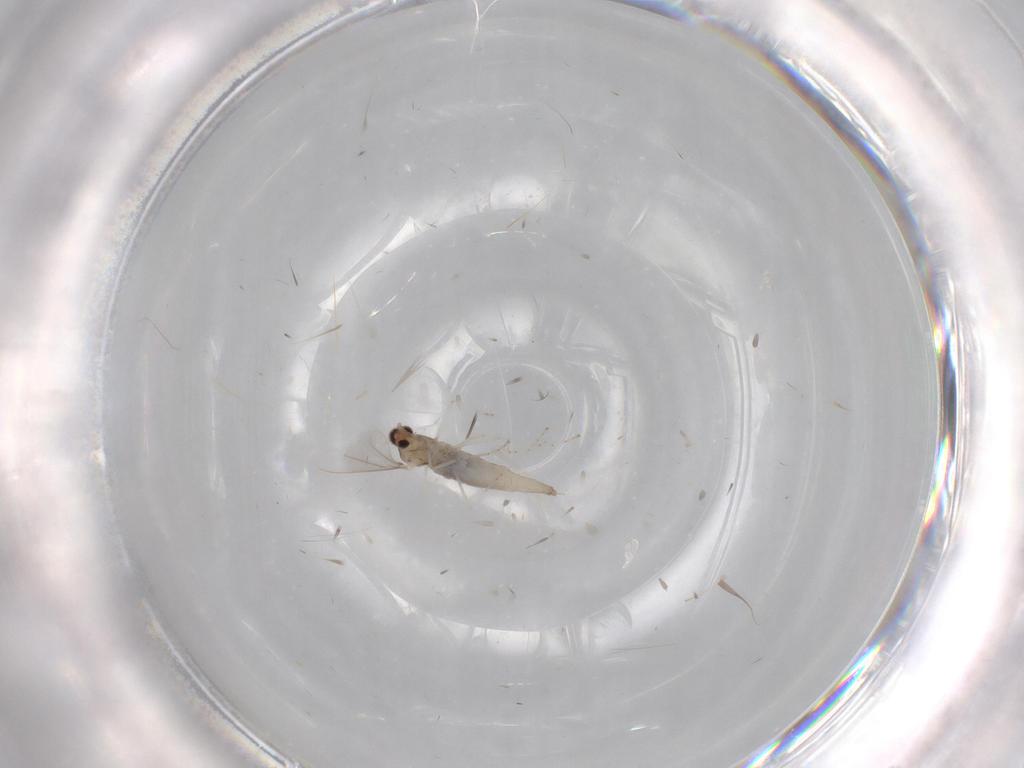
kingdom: Animalia
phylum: Arthropoda
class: Insecta
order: Diptera
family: Cecidomyiidae
